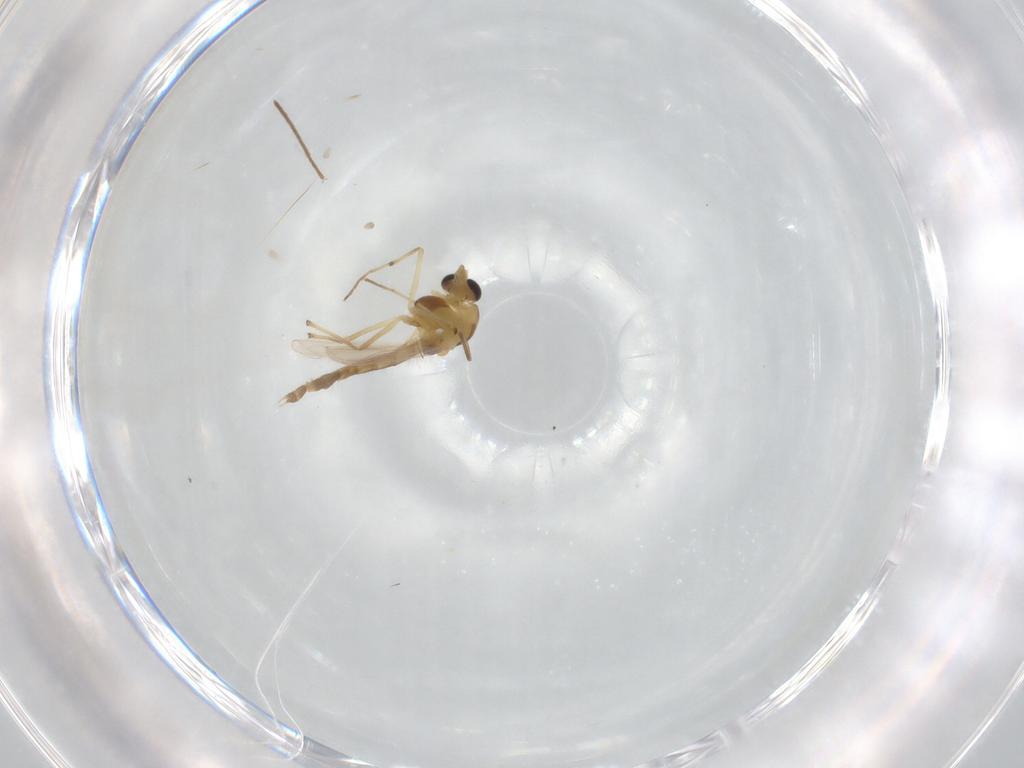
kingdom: Animalia
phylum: Arthropoda
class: Insecta
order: Diptera
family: Chironomidae
